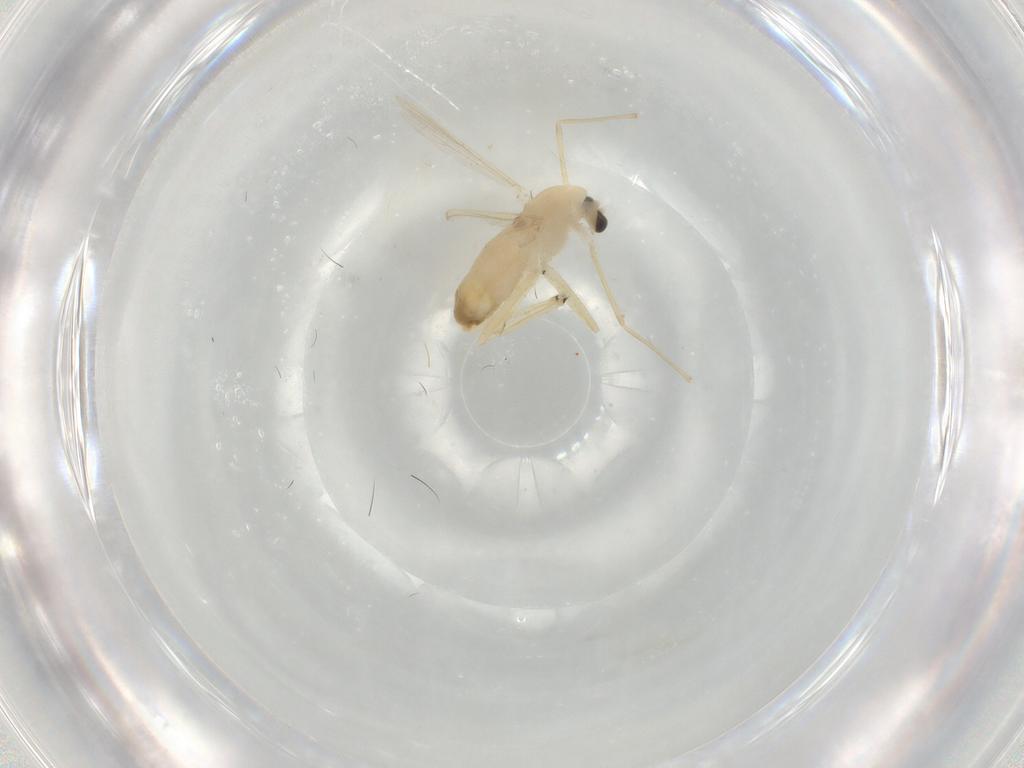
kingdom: Animalia
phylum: Arthropoda
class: Insecta
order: Diptera
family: Chironomidae
